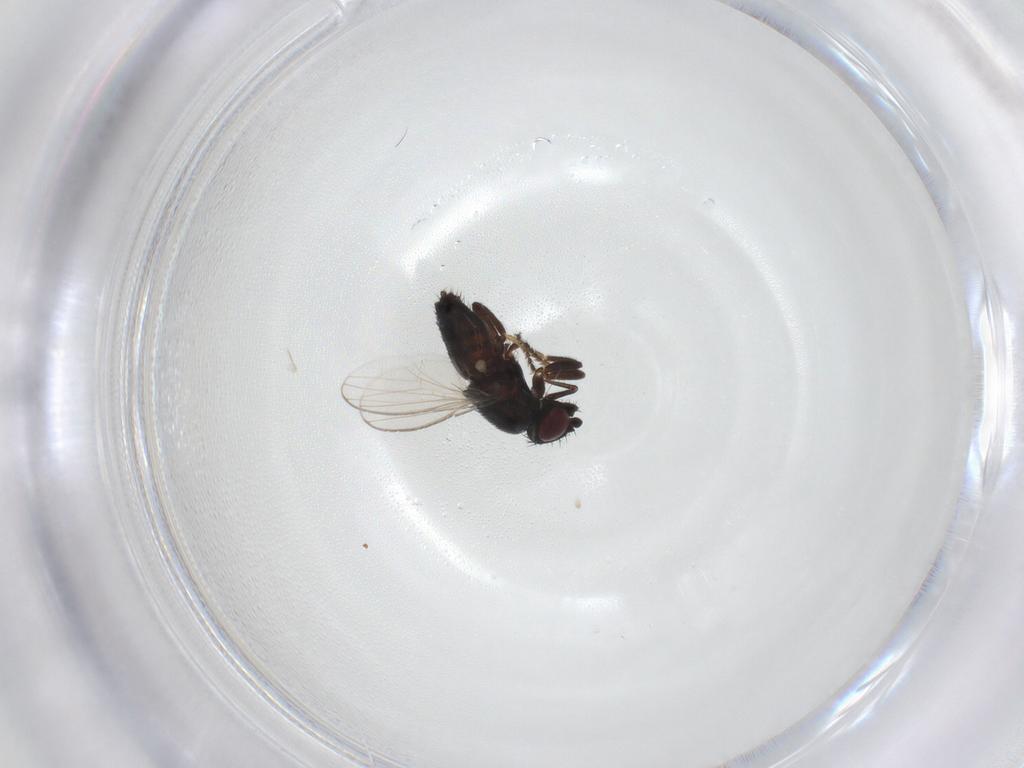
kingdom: Animalia
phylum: Arthropoda
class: Insecta
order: Diptera
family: Milichiidae
